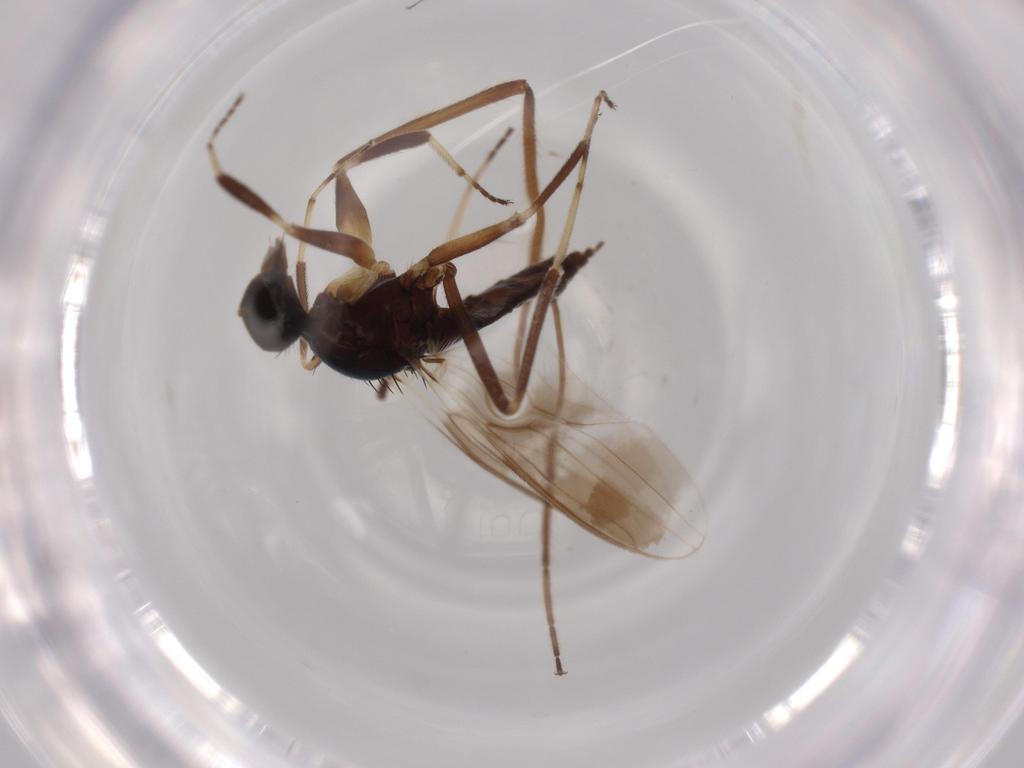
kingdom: Animalia
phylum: Arthropoda
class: Insecta
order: Diptera
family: Hybotidae
